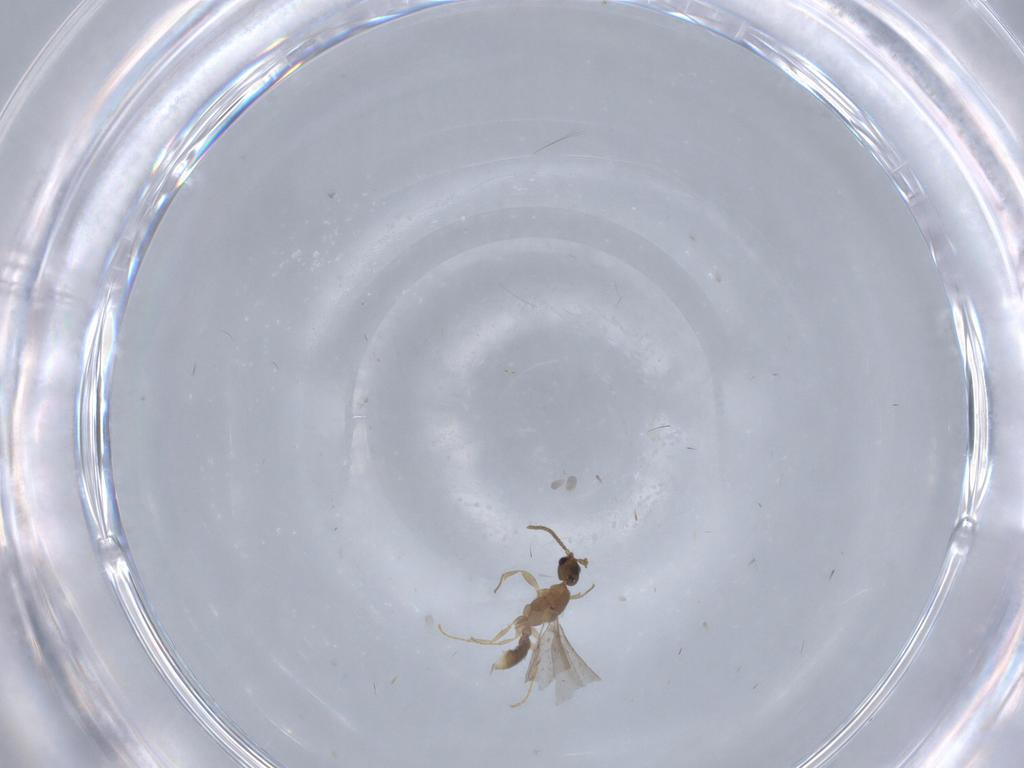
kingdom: Animalia
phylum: Arthropoda
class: Insecta
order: Hymenoptera
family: Formicidae
